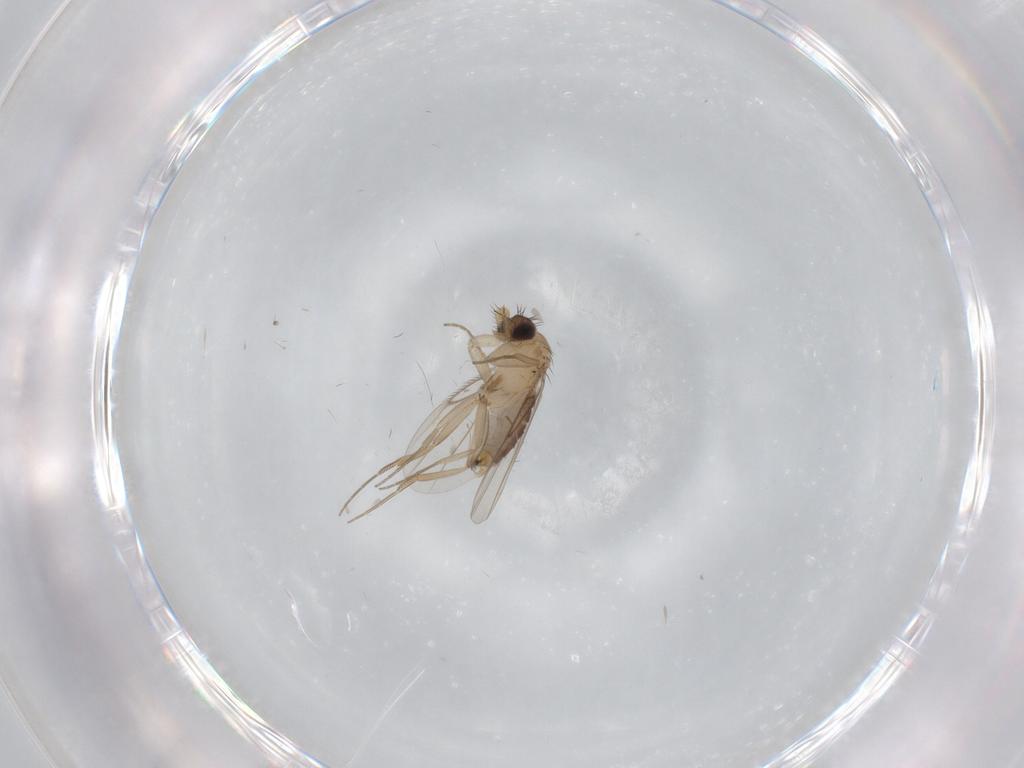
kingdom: Animalia
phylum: Arthropoda
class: Insecta
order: Diptera
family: Phoridae
